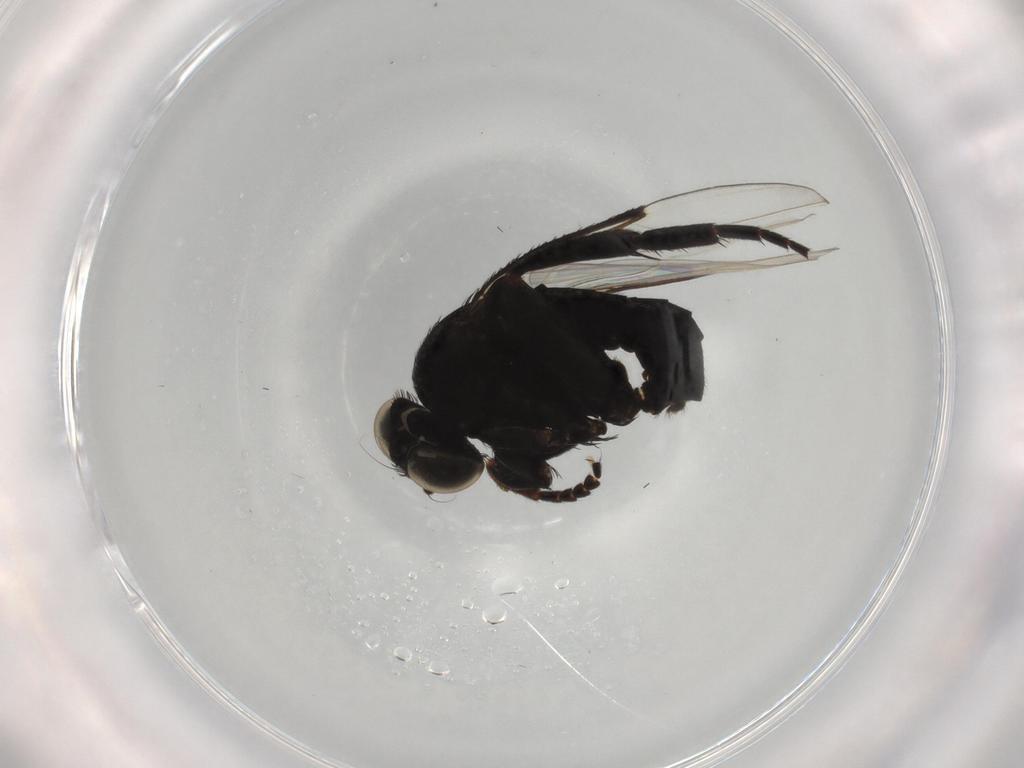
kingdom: Animalia
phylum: Arthropoda
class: Insecta
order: Diptera
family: Phoridae
